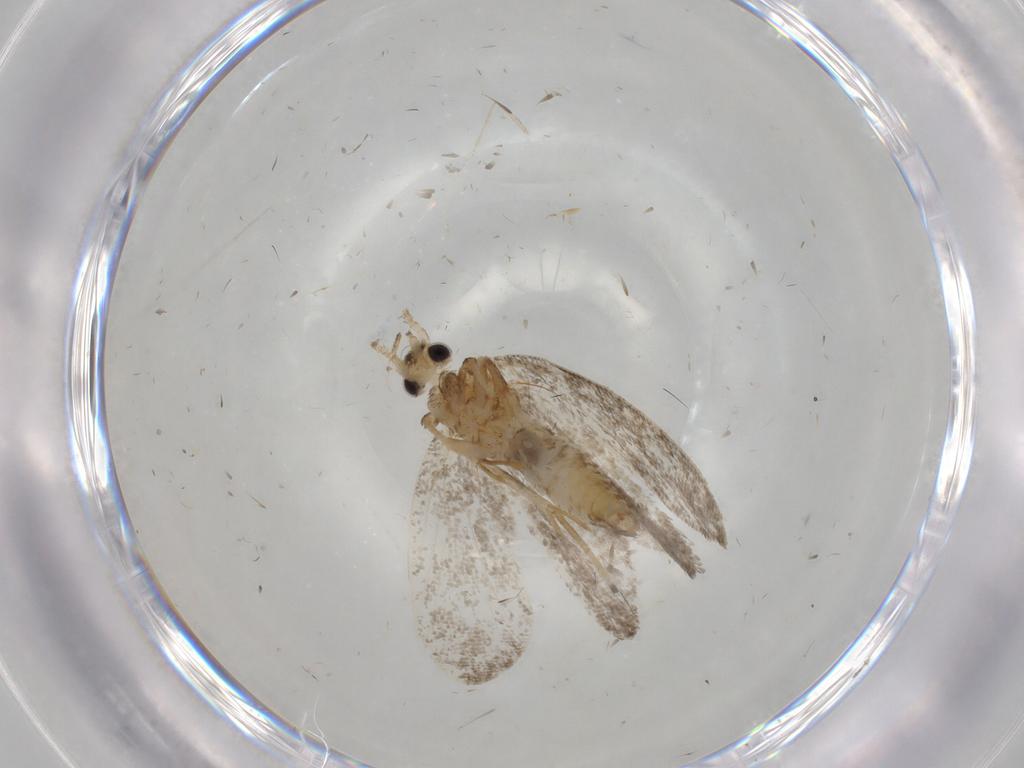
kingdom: Animalia
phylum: Arthropoda
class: Insecta
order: Lepidoptera
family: Psychidae
